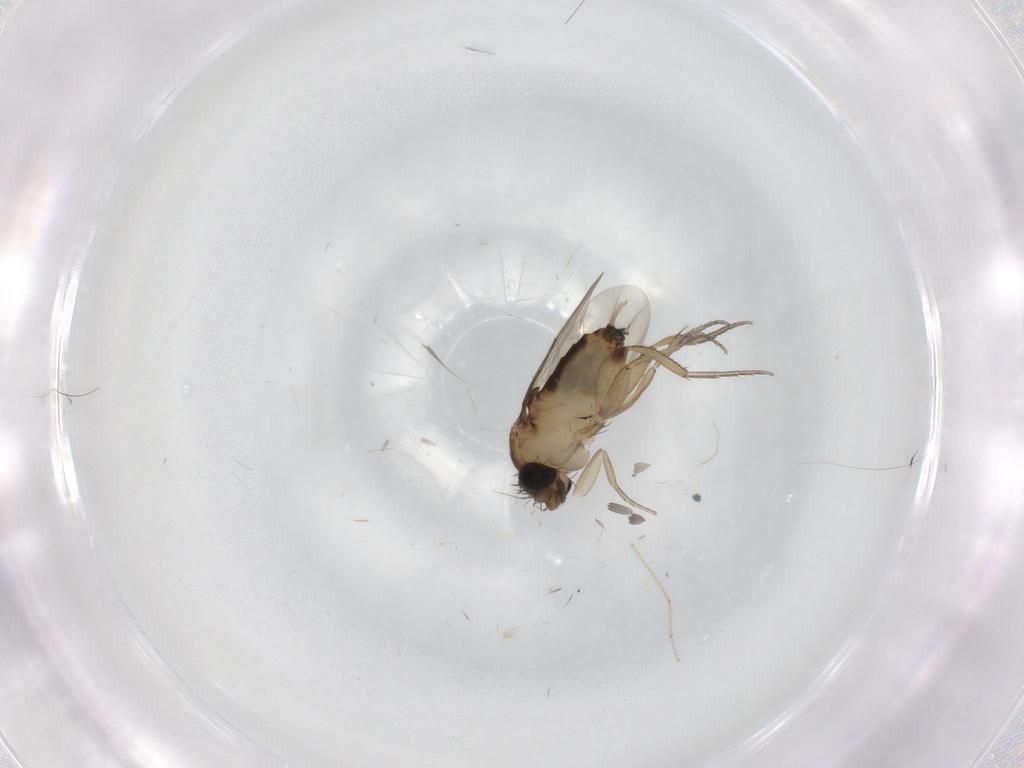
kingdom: Animalia
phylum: Arthropoda
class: Insecta
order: Diptera
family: Phoridae
